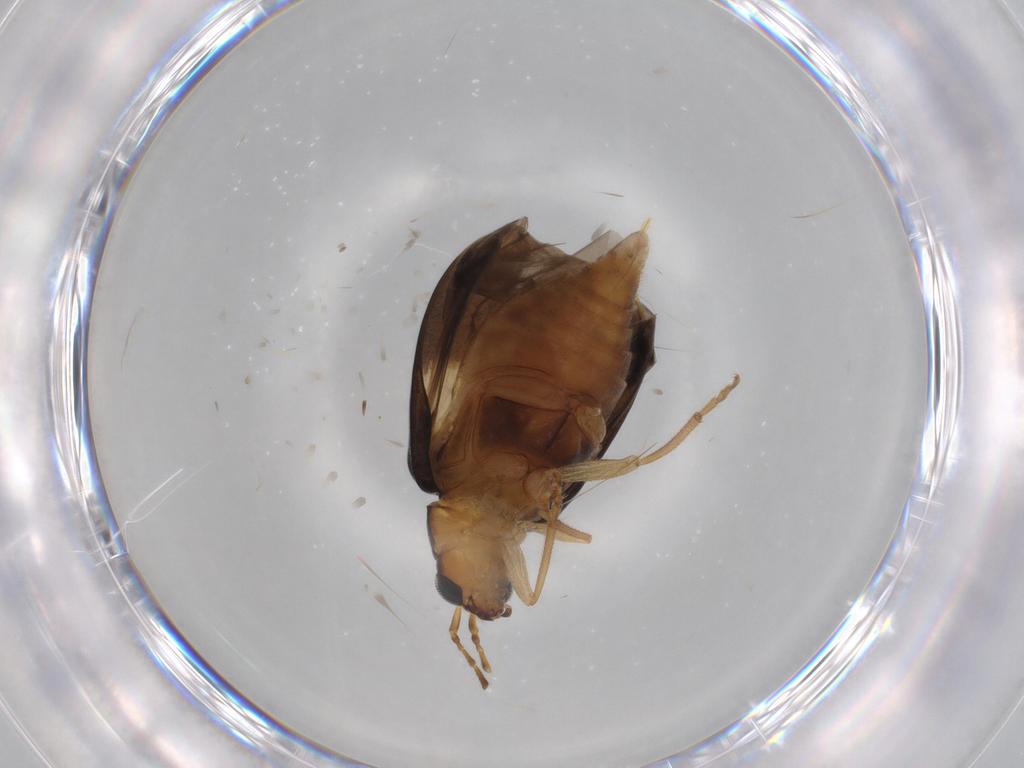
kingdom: Animalia
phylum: Arthropoda
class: Insecta
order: Coleoptera
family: Chrysomelidae
